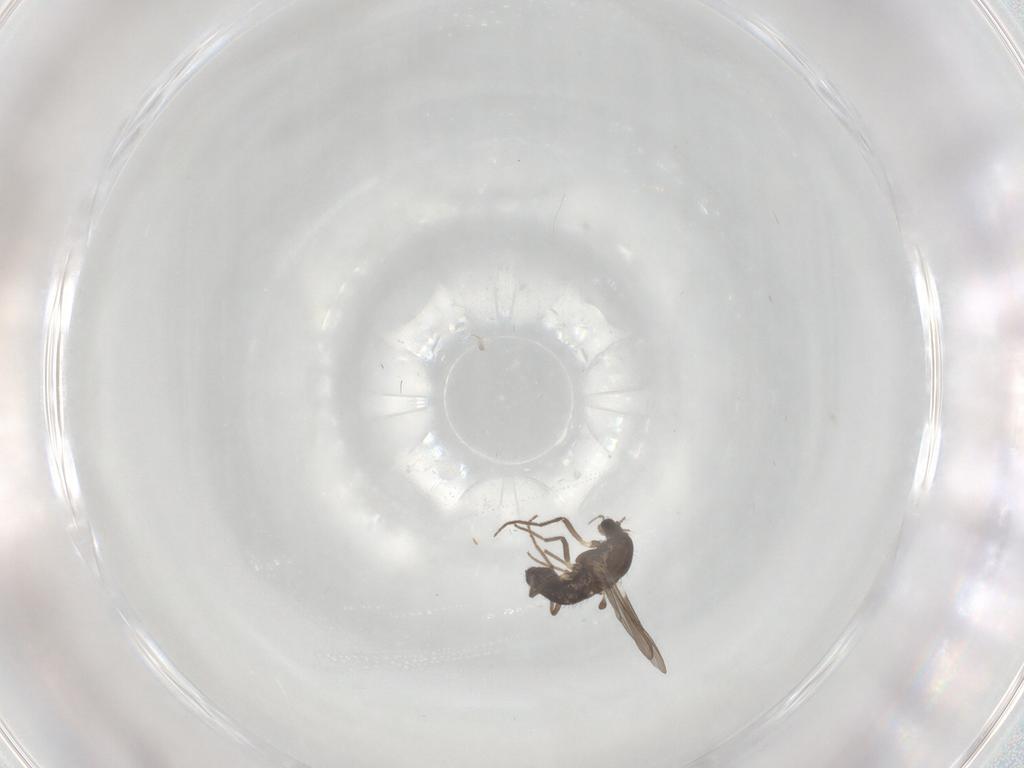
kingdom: Animalia
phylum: Arthropoda
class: Insecta
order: Diptera
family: Chironomidae
